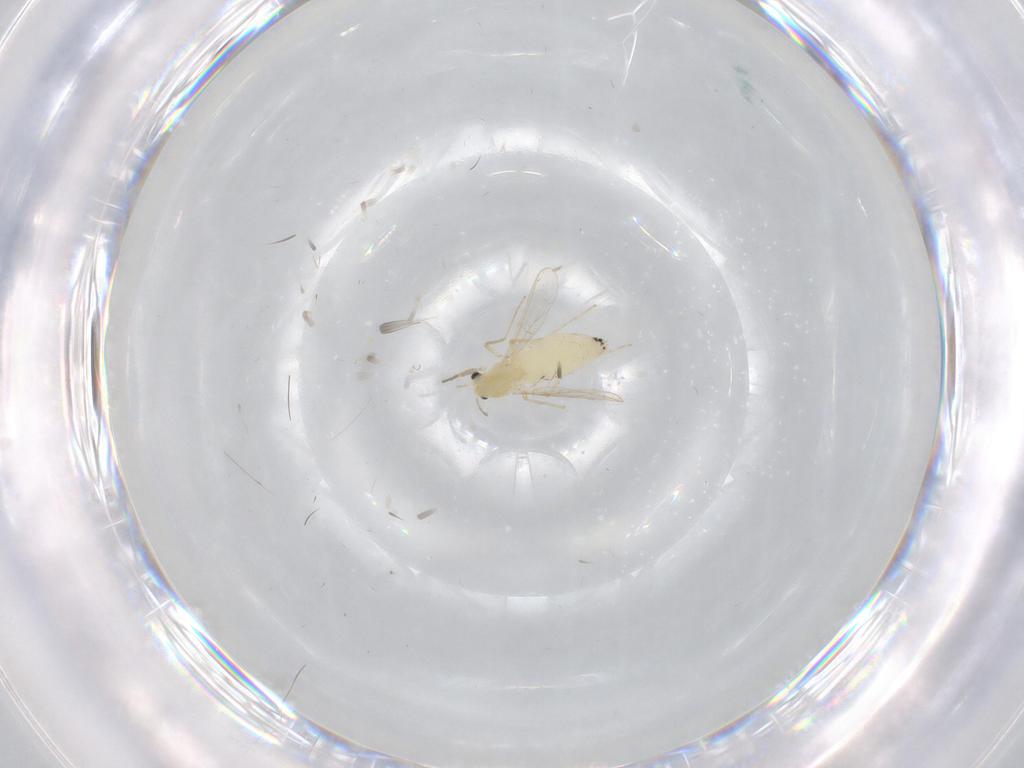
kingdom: Animalia
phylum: Arthropoda
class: Insecta
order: Diptera
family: Chironomidae
